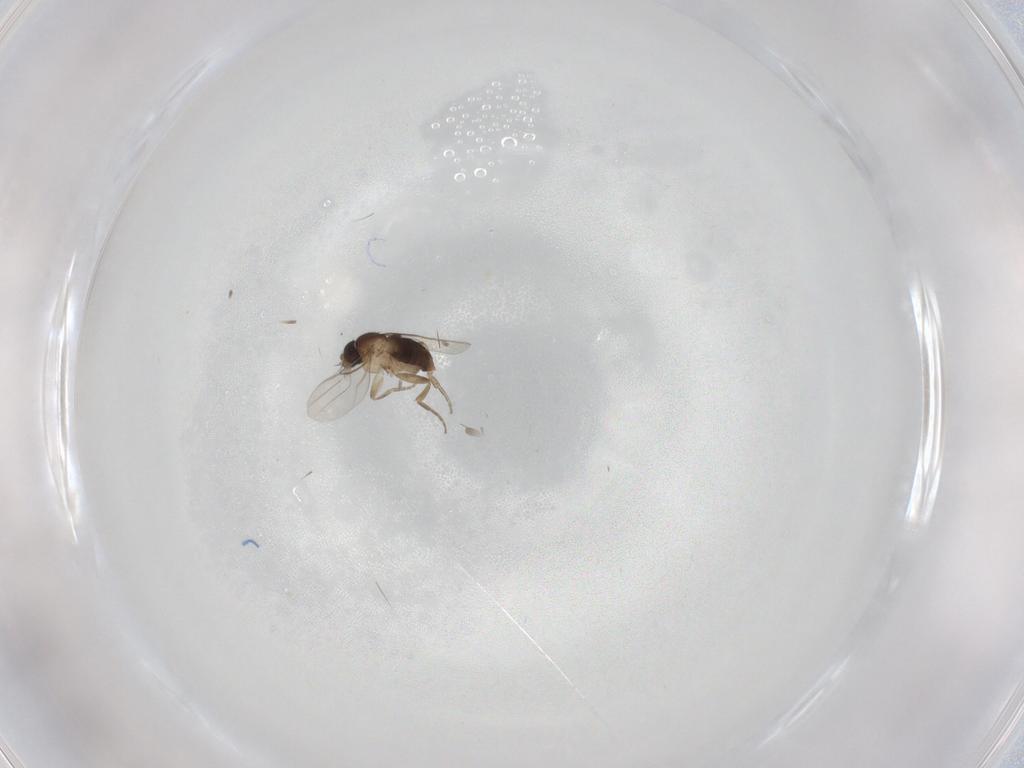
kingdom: Animalia
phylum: Arthropoda
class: Insecta
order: Diptera
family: Phoridae
